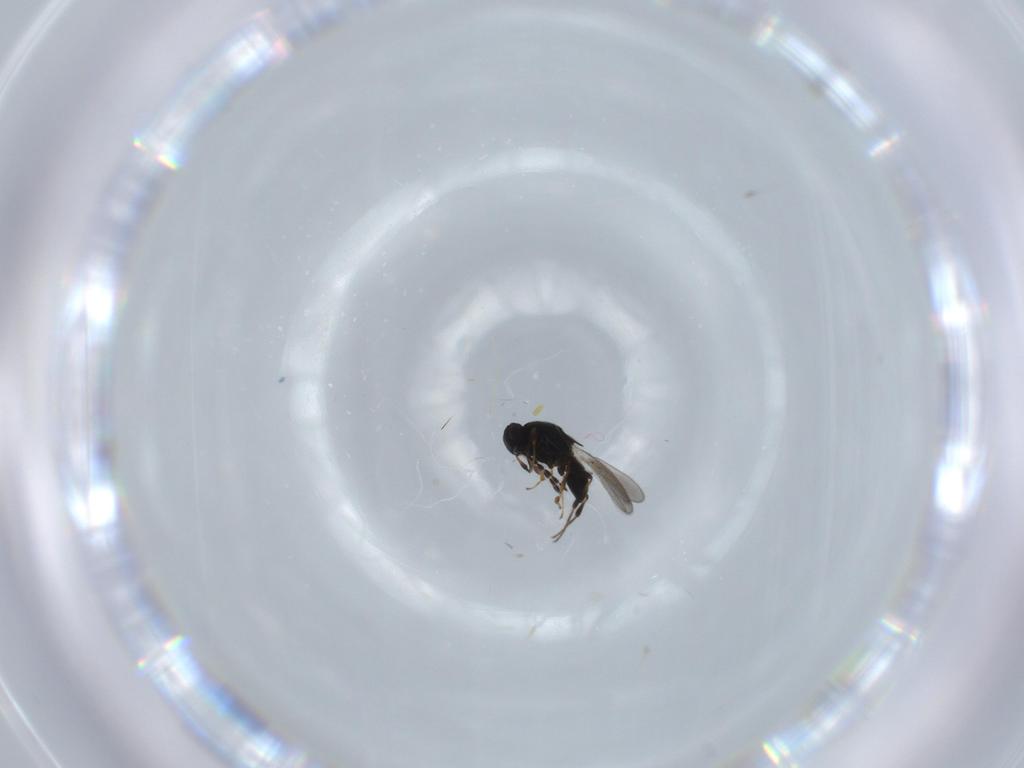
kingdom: Animalia
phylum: Arthropoda
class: Insecta
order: Hymenoptera
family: Platygastridae
